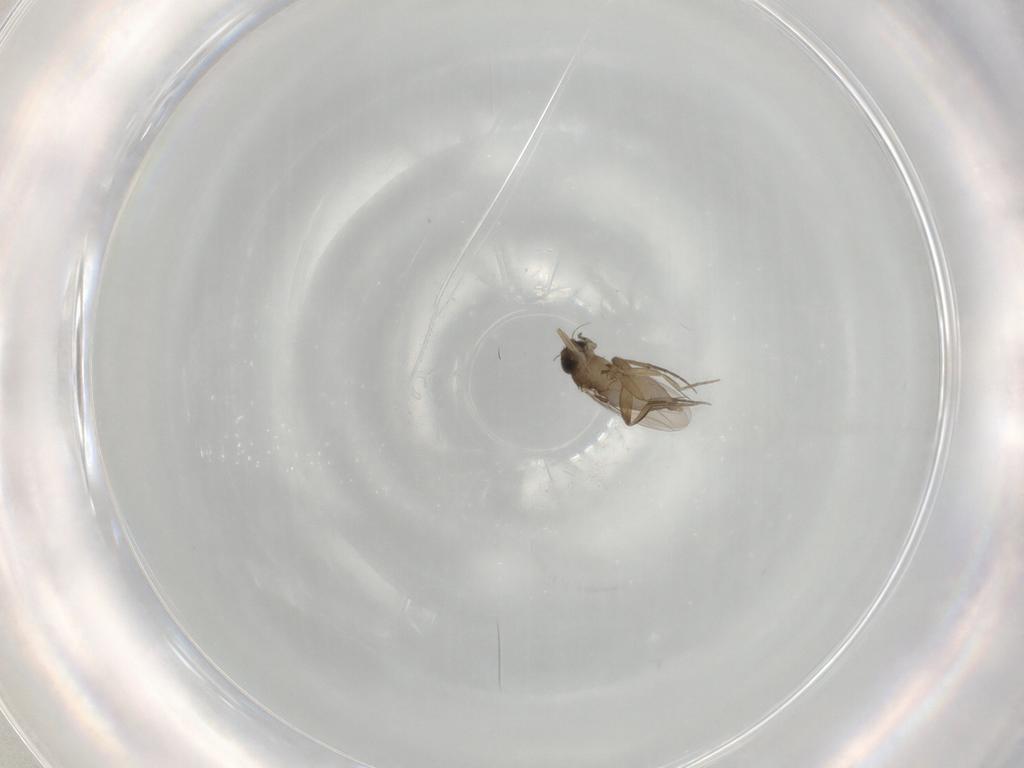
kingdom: Animalia
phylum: Arthropoda
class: Insecta
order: Diptera
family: Phoridae
